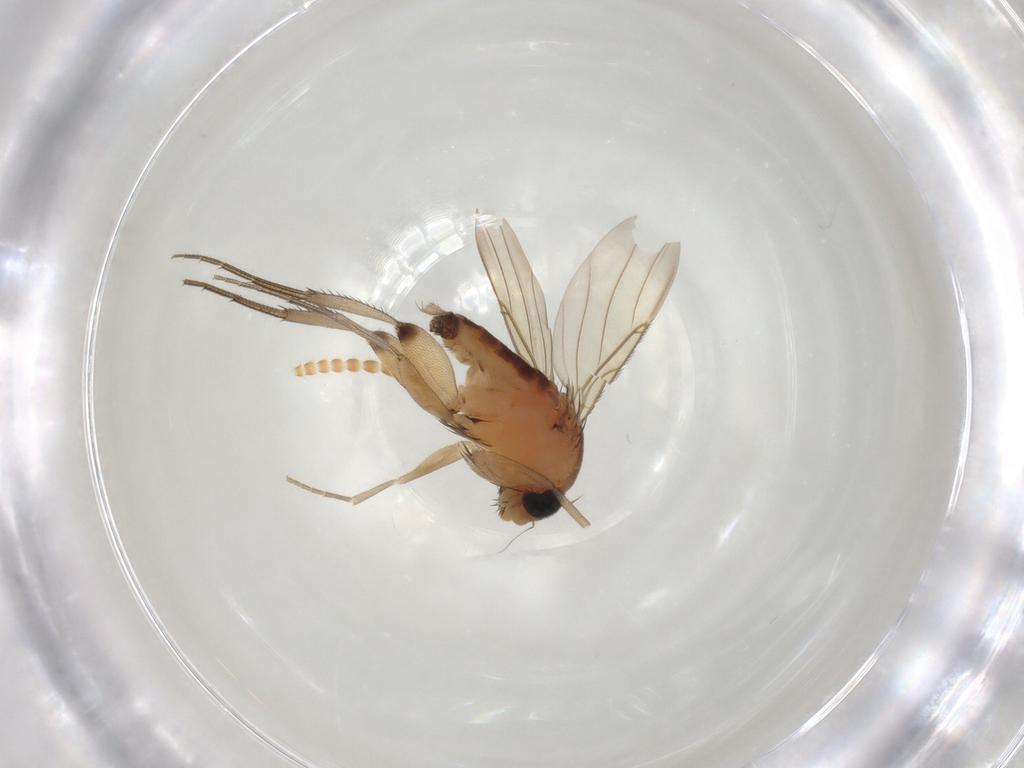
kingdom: Animalia
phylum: Arthropoda
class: Insecta
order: Diptera
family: Phoridae
